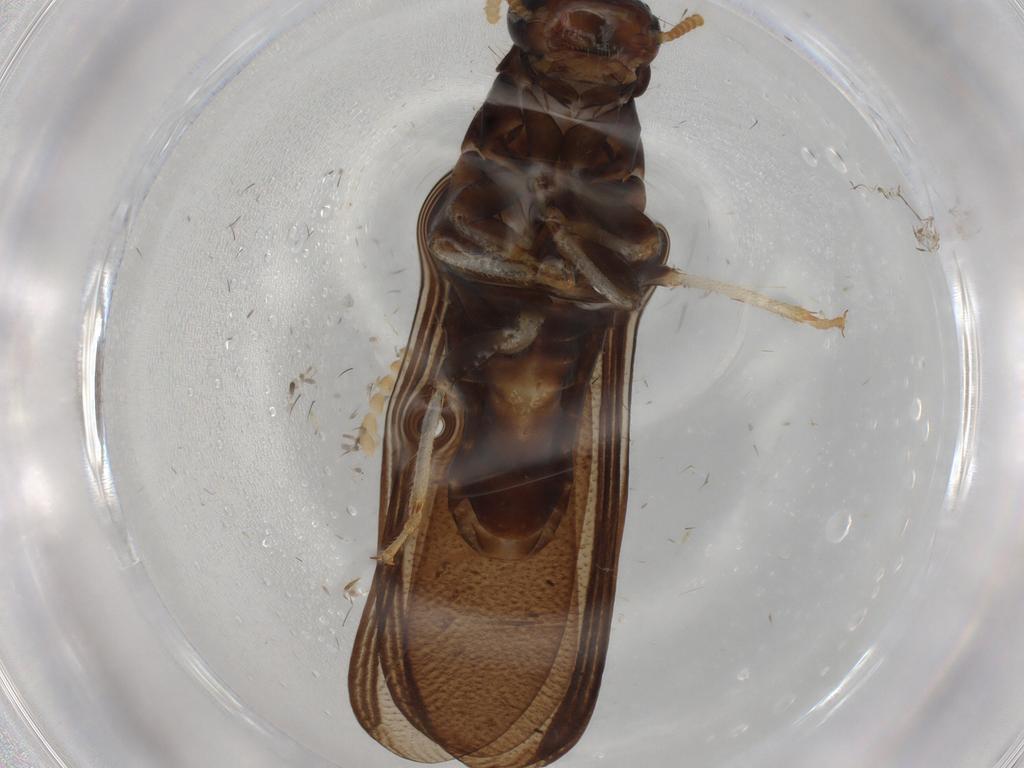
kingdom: Animalia
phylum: Arthropoda
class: Insecta
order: Blattodea
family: Kalotermitidae
